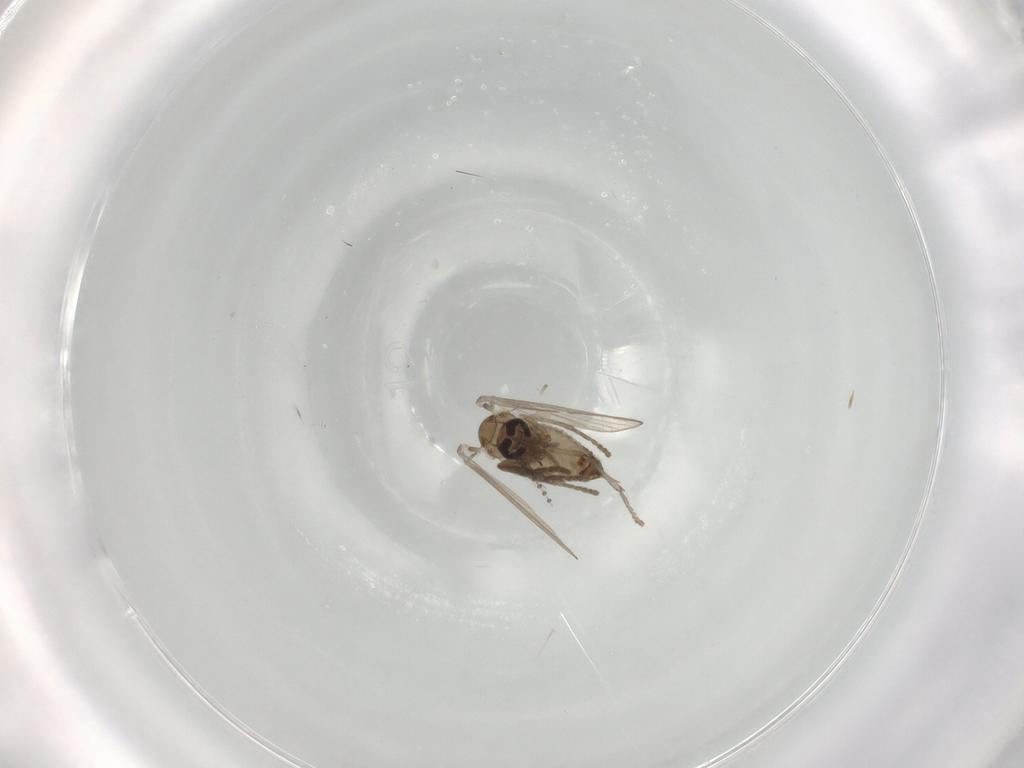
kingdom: Animalia
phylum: Arthropoda
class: Insecta
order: Diptera
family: Psychodidae
